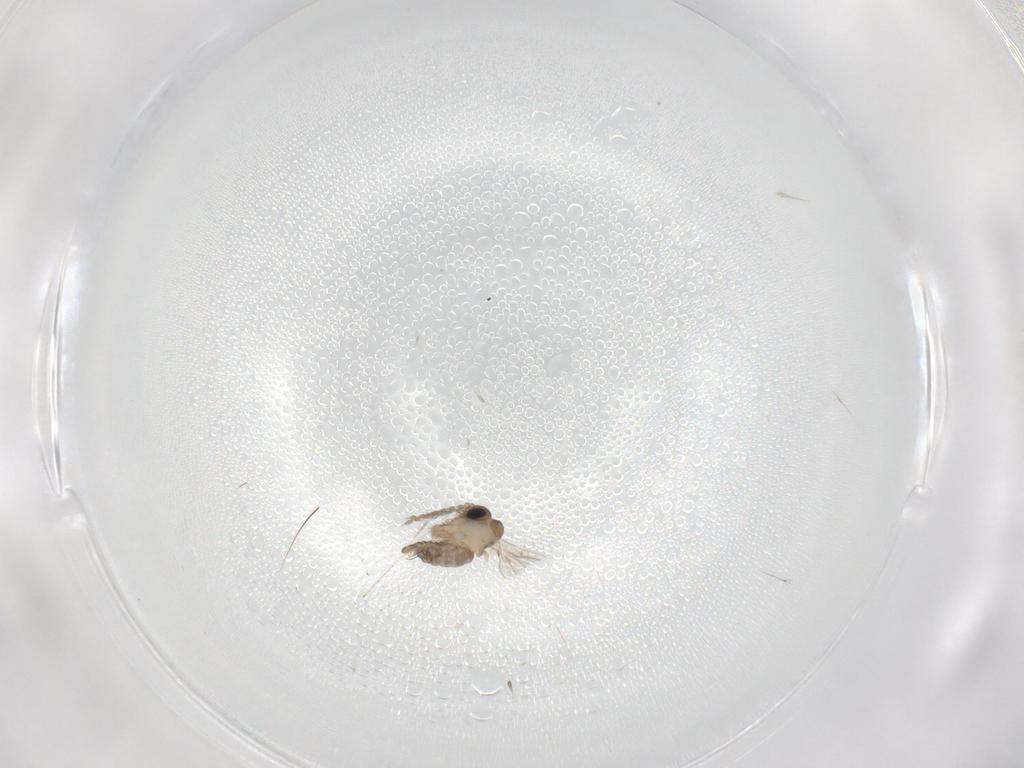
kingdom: Animalia
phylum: Arthropoda
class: Insecta
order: Diptera
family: Cecidomyiidae
